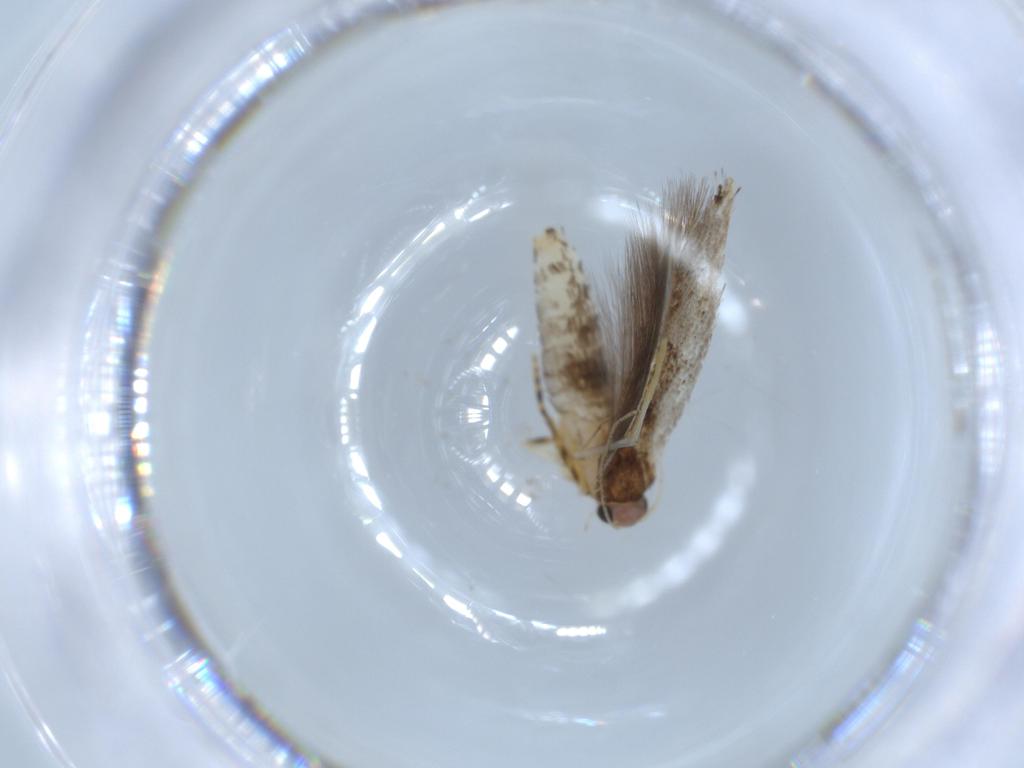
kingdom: Animalia
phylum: Arthropoda
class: Insecta
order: Lepidoptera
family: Tineidae
